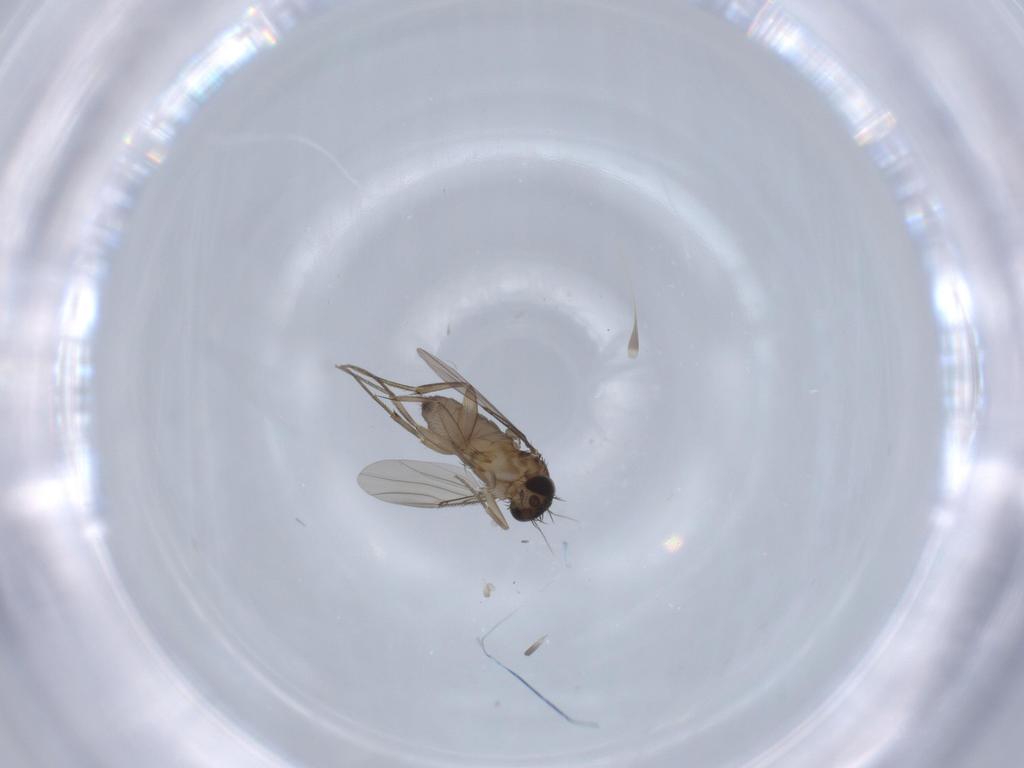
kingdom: Animalia
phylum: Arthropoda
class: Insecta
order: Diptera
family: Phoridae
